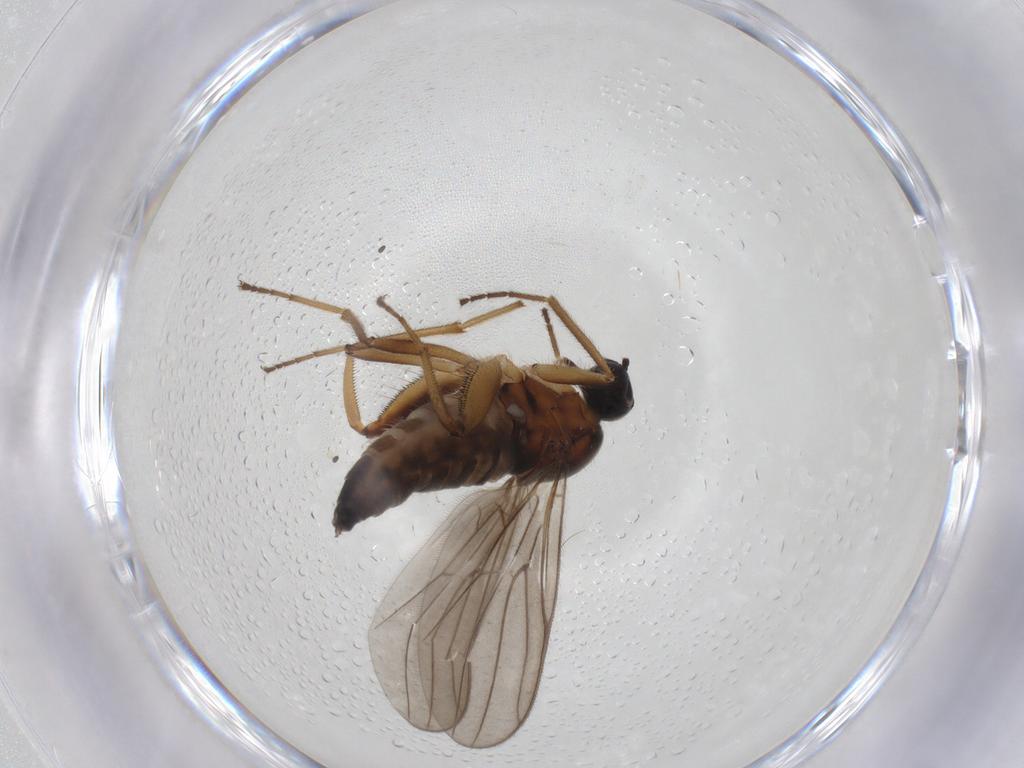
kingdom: Animalia
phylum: Arthropoda
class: Insecta
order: Diptera
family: Hybotidae
